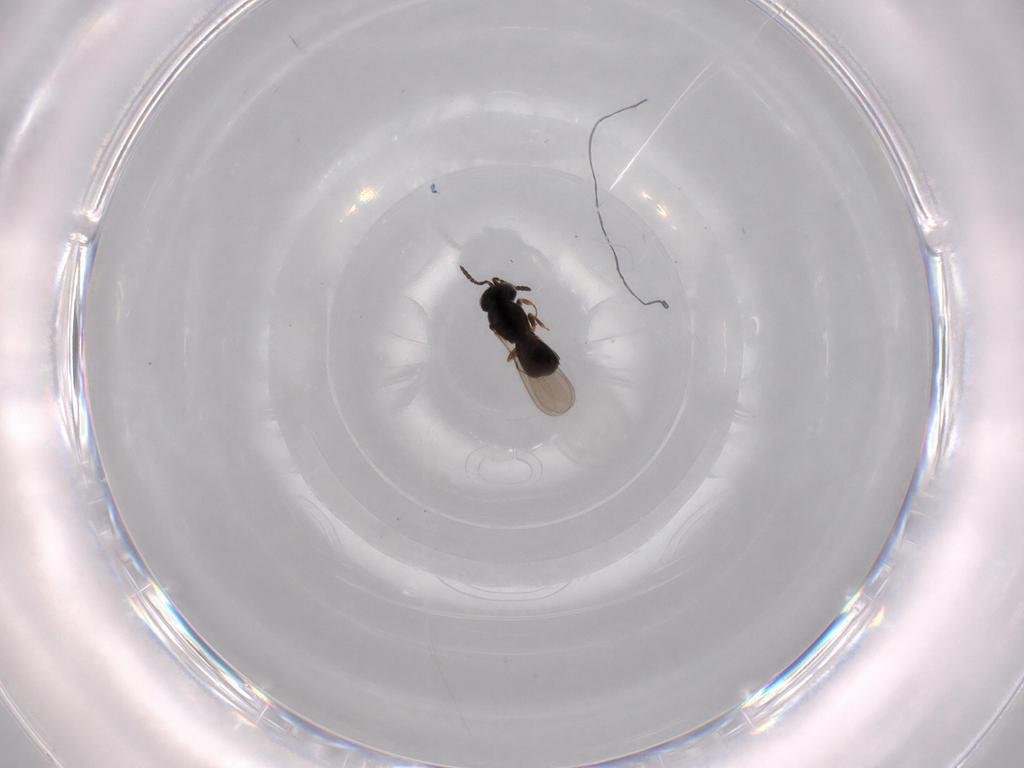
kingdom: Animalia
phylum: Arthropoda
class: Insecta
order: Hymenoptera
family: Scelionidae
